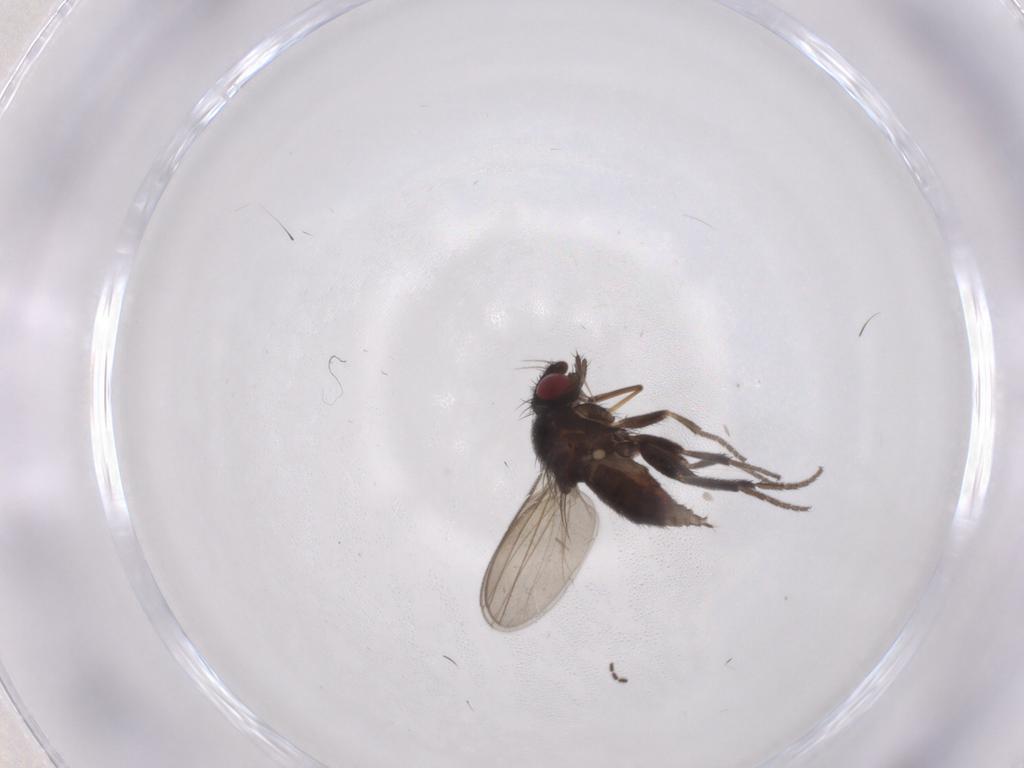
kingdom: Animalia
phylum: Arthropoda
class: Insecta
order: Diptera
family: Milichiidae
